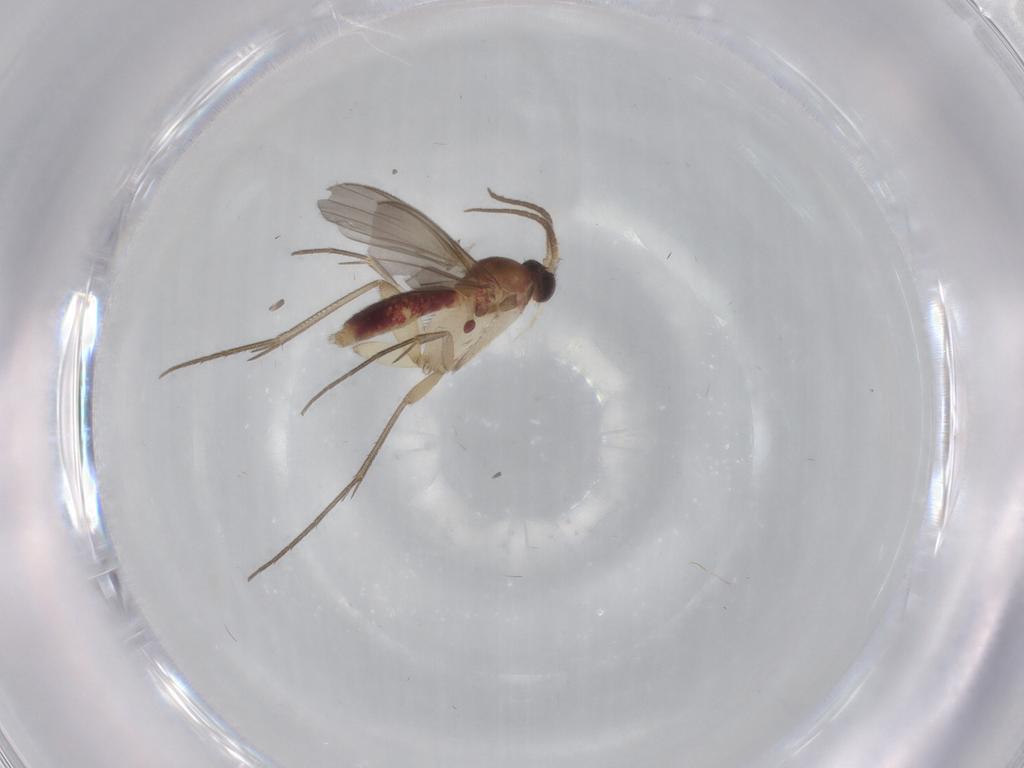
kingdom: Animalia
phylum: Arthropoda
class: Insecta
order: Diptera
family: Mycetophilidae
